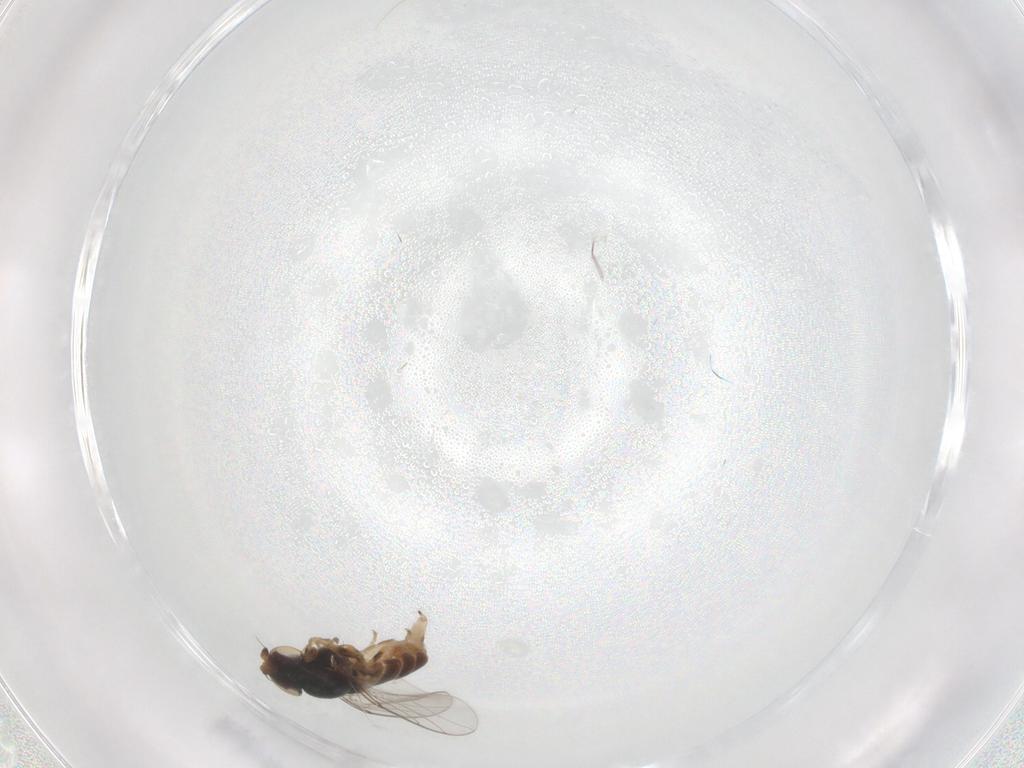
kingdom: Animalia
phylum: Arthropoda
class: Insecta
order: Diptera
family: Chloropidae
